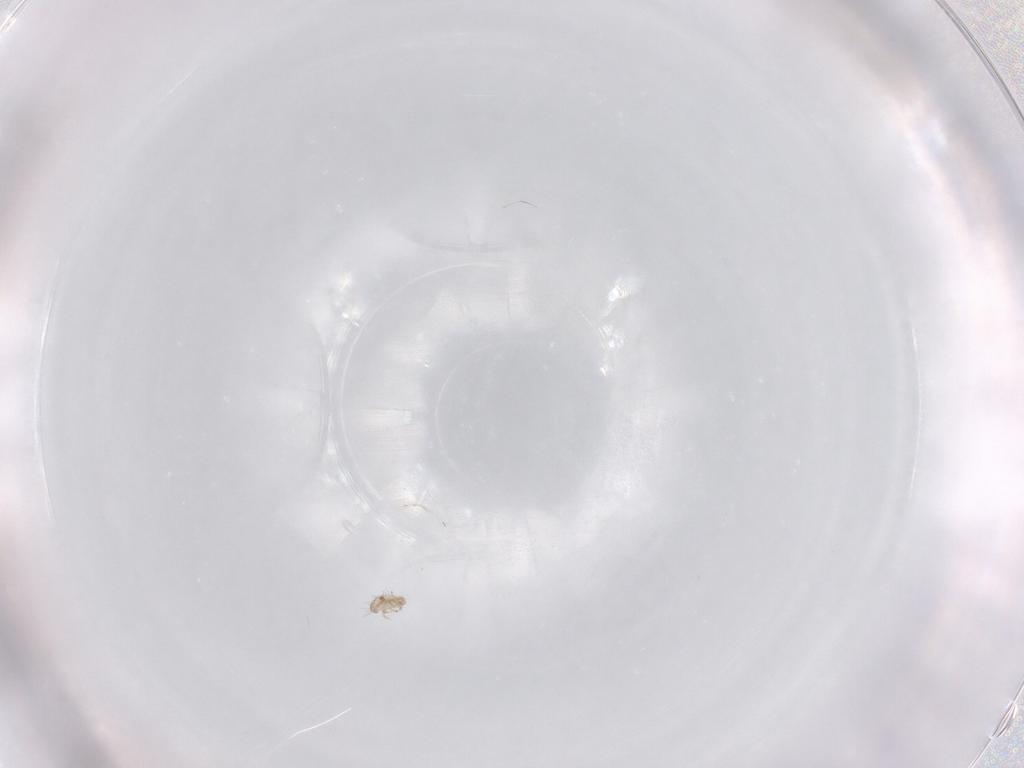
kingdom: Animalia
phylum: Arthropoda
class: Arachnida
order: Sarcoptiformes
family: Humerobatidae
